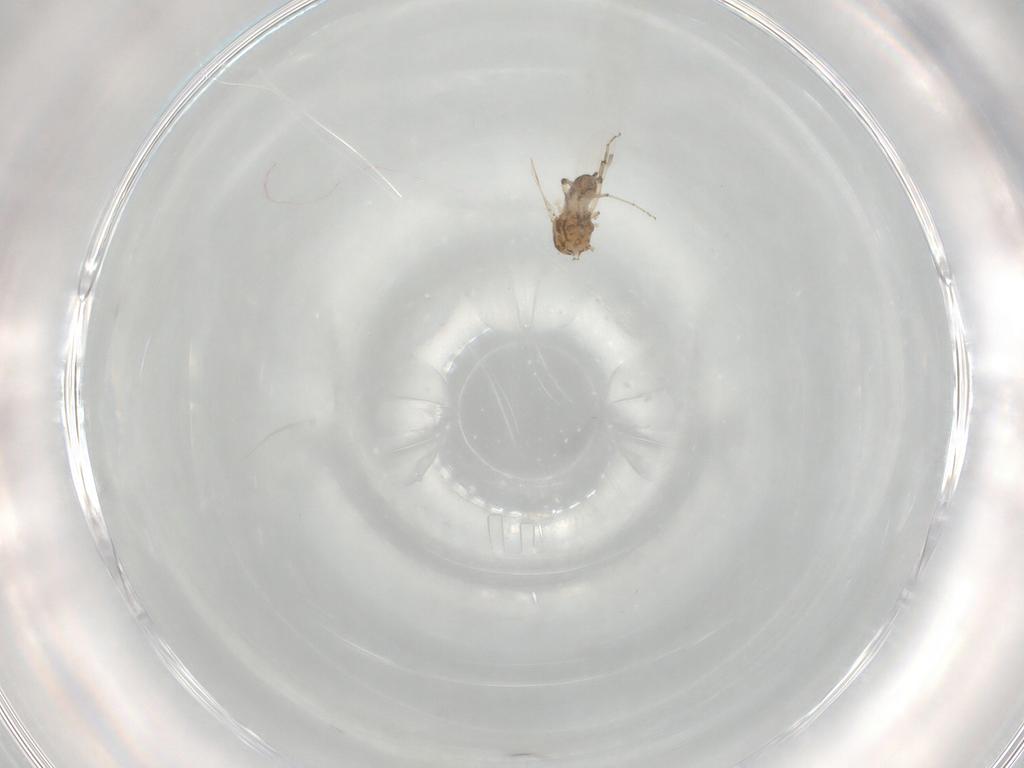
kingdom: Animalia
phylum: Arthropoda
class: Insecta
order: Diptera
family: Ceratopogonidae
